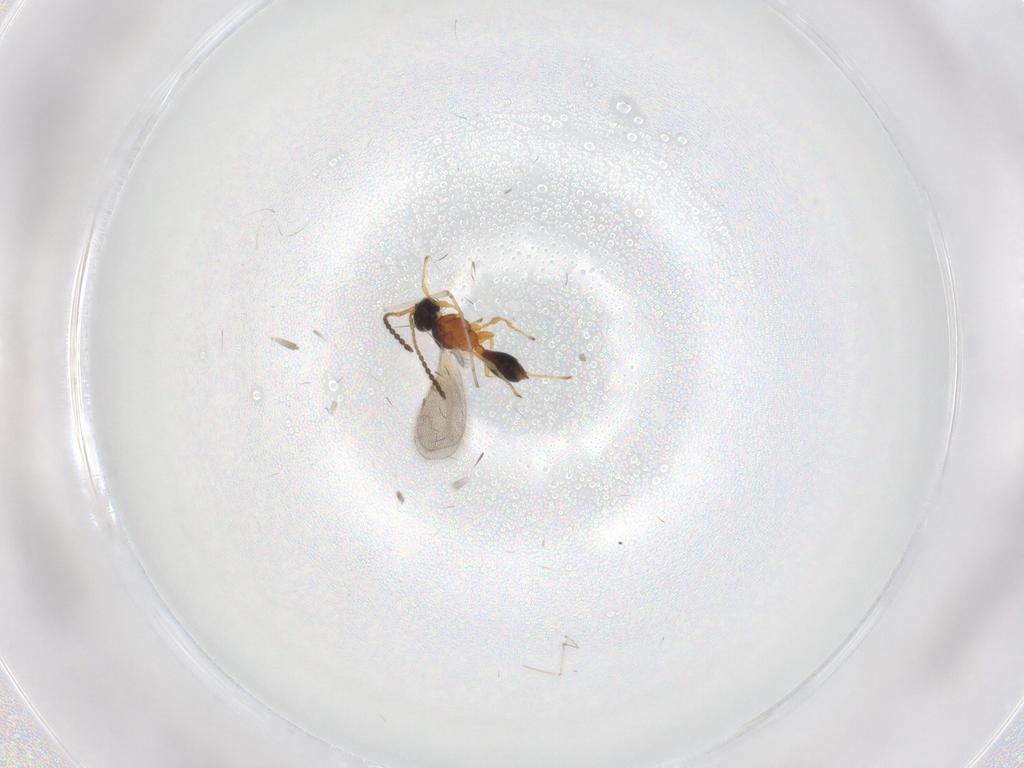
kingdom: Animalia
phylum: Arthropoda
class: Insecta
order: Hymenoptera
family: Diapriidae
